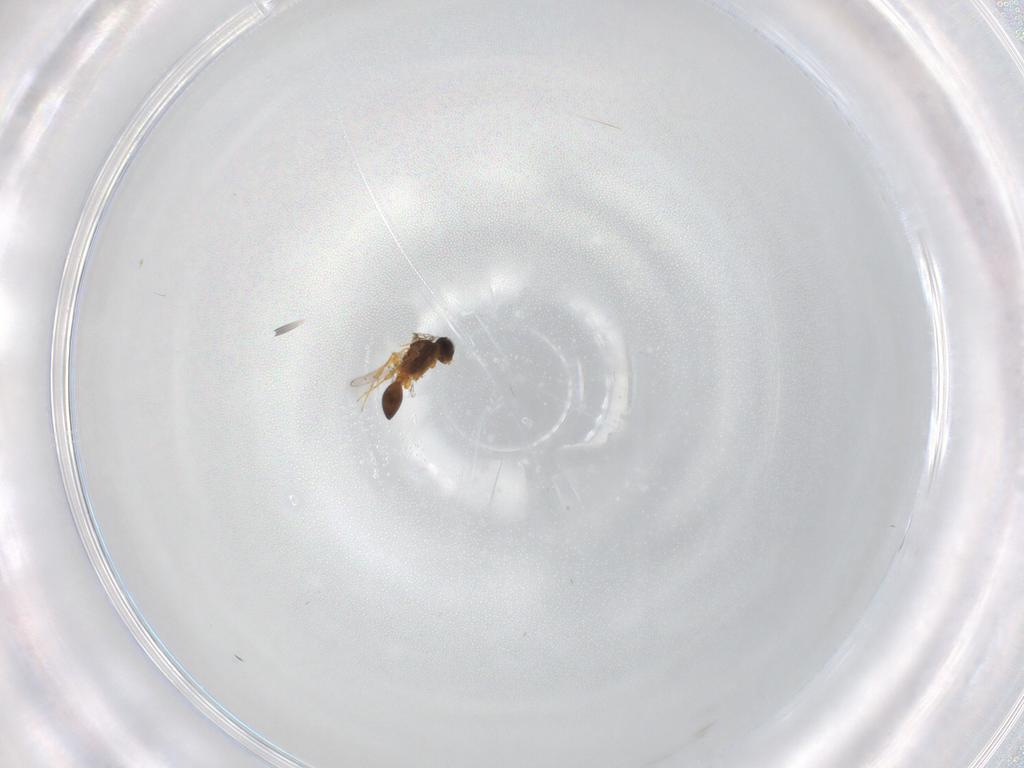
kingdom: Animalia
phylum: Arthropoda
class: Insecta
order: Hymenoptera
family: Platygastridae
